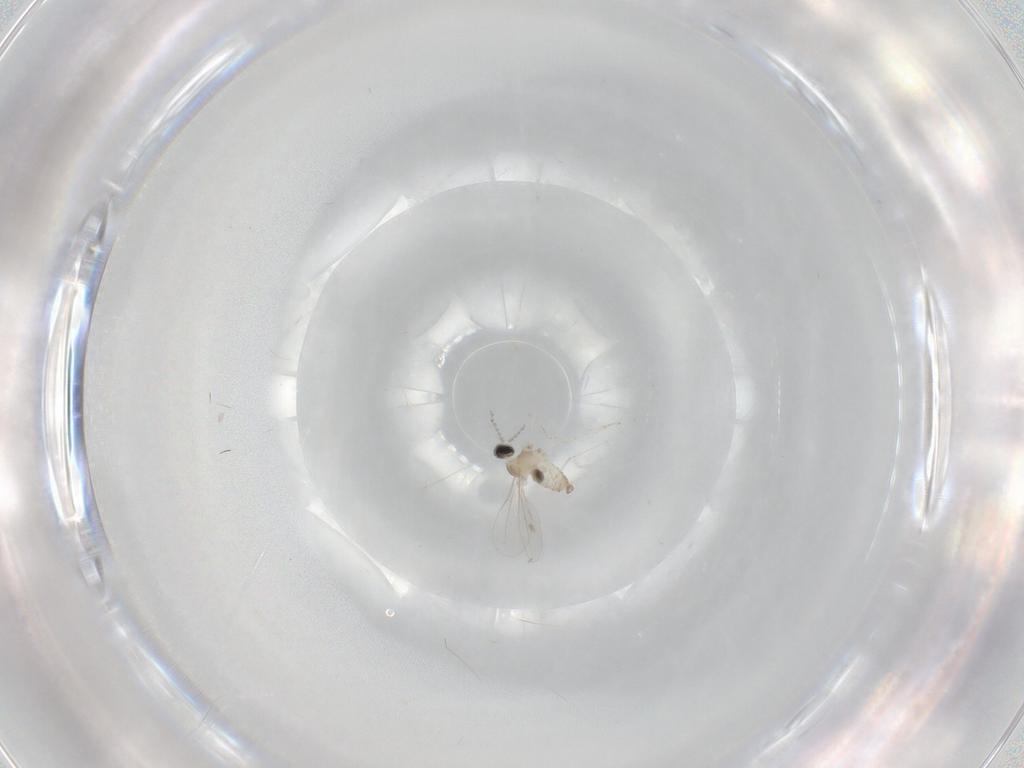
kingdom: Animalia
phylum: Arthropoda
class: Insecta
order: Diptera
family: Cecidomyiidae
